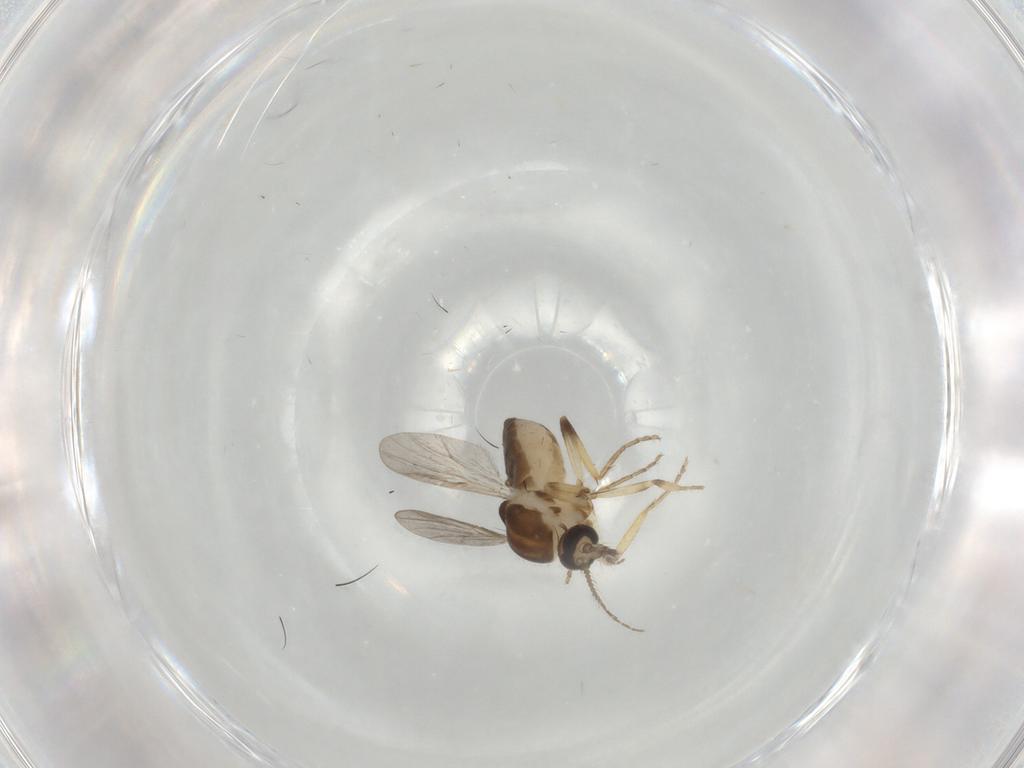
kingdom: Animalia
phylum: Arthropoda
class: Insecta
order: Diptera
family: Ceratopogonidae
